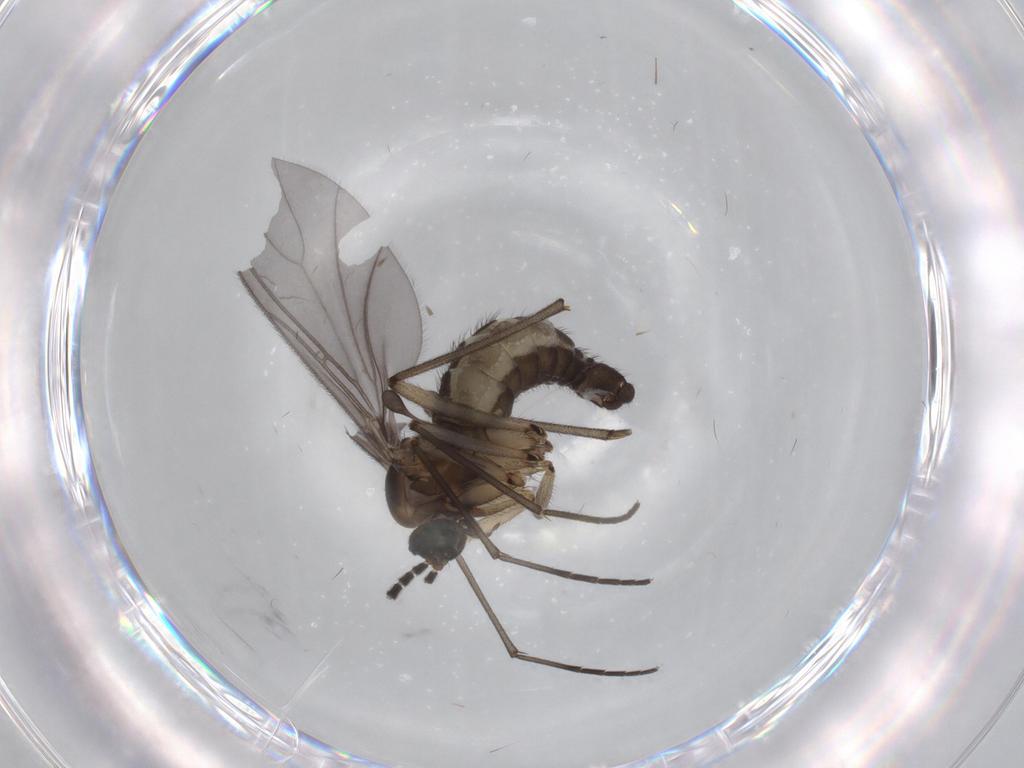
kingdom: Animalia
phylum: Arthropoda
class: Insecta
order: Diptera
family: Sciaridae
